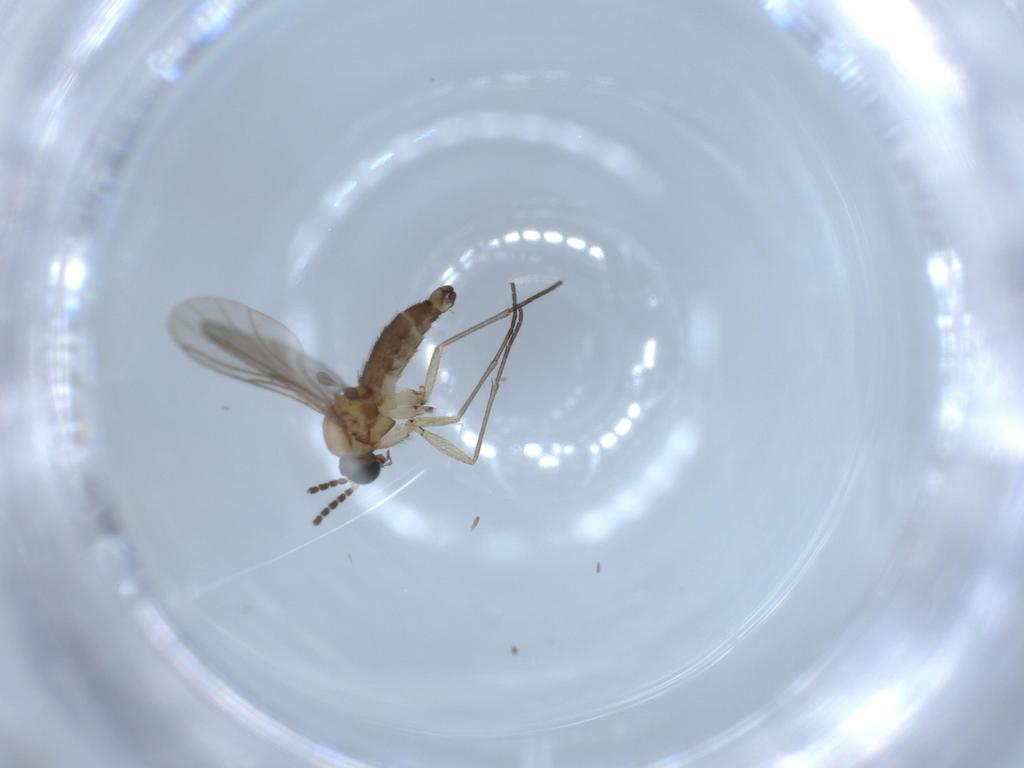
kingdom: Animalia
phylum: Arthropoda
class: Insecta
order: Diptera
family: Sciaridae
